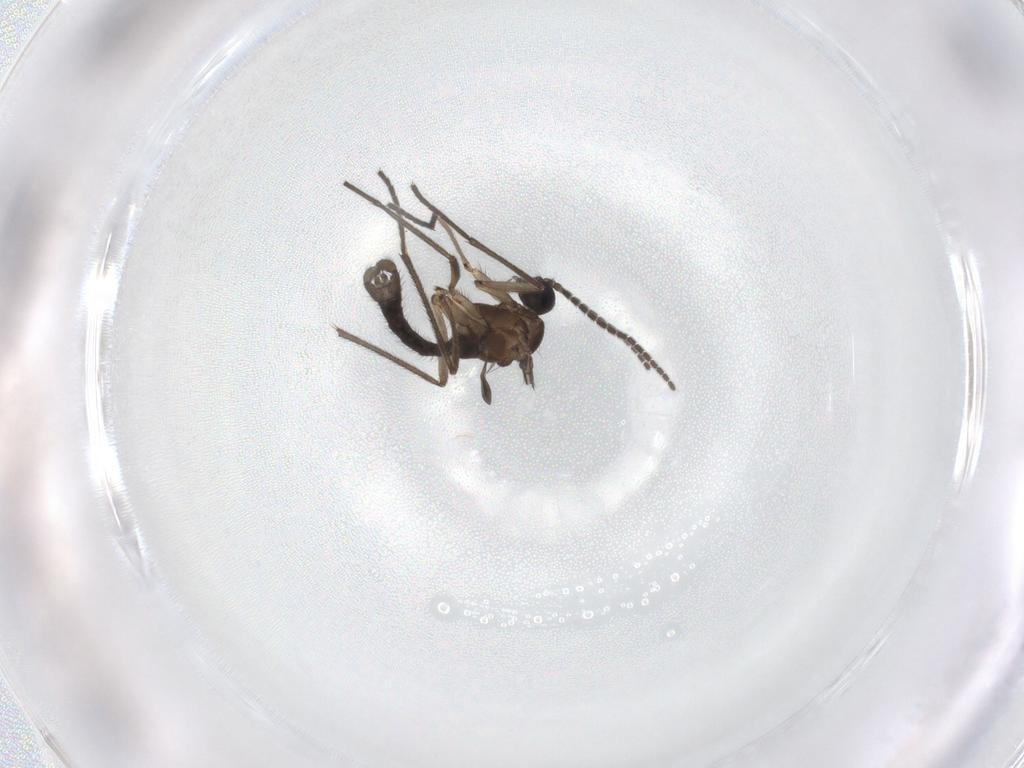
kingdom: Animalia
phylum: Arthropoda
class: Insecta
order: Diptera
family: Sciaridae
